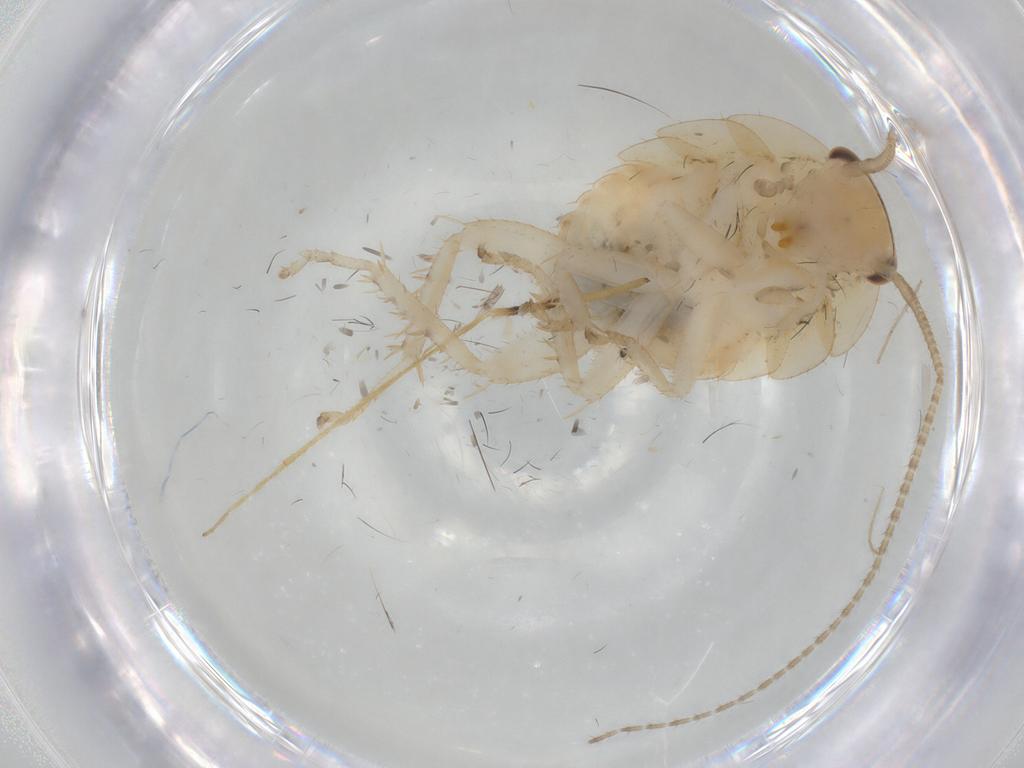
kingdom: Animalia
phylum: Arthropoda
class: Insecta
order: Blattodea
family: Ectobiidae
